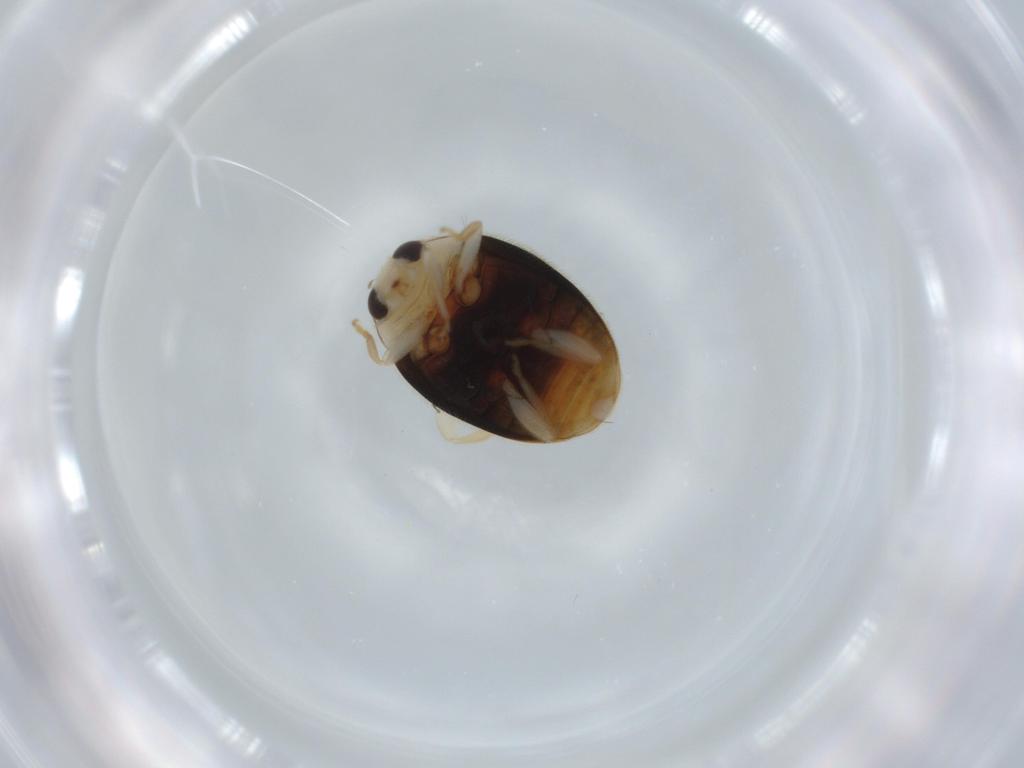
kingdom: Animalia
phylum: Arthropoda
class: Insecta
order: Coleoptera
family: Coccinellidae
